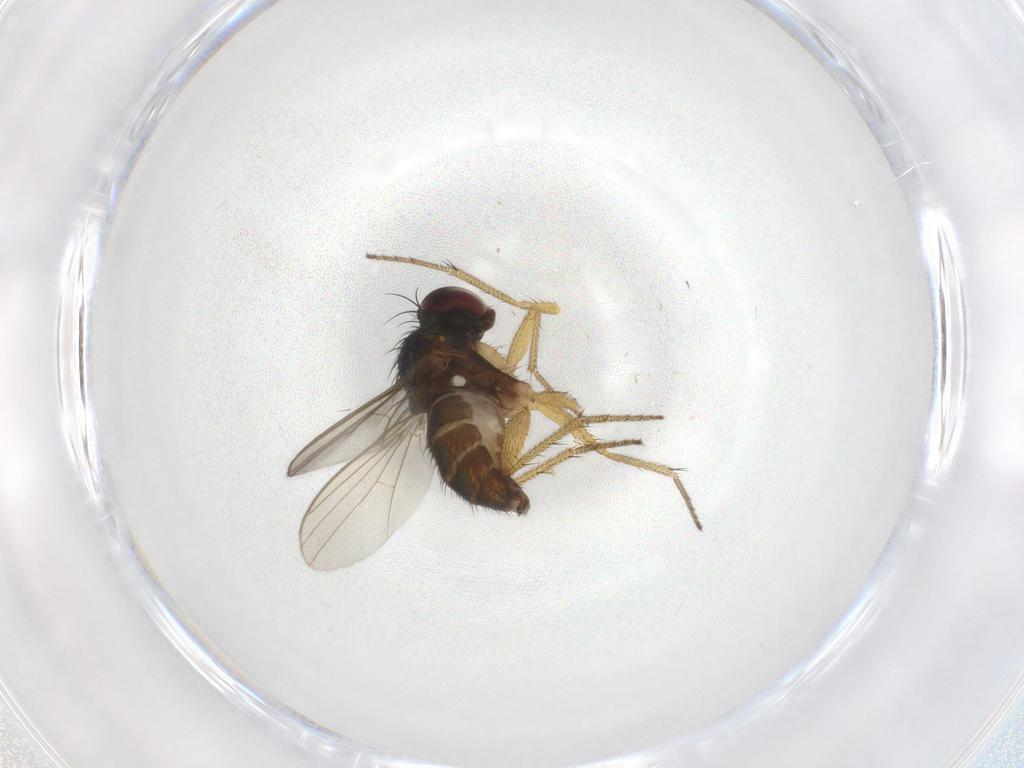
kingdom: Animalia
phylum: Arthropoda
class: Insecta
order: Diptera
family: Dolichopodidae
